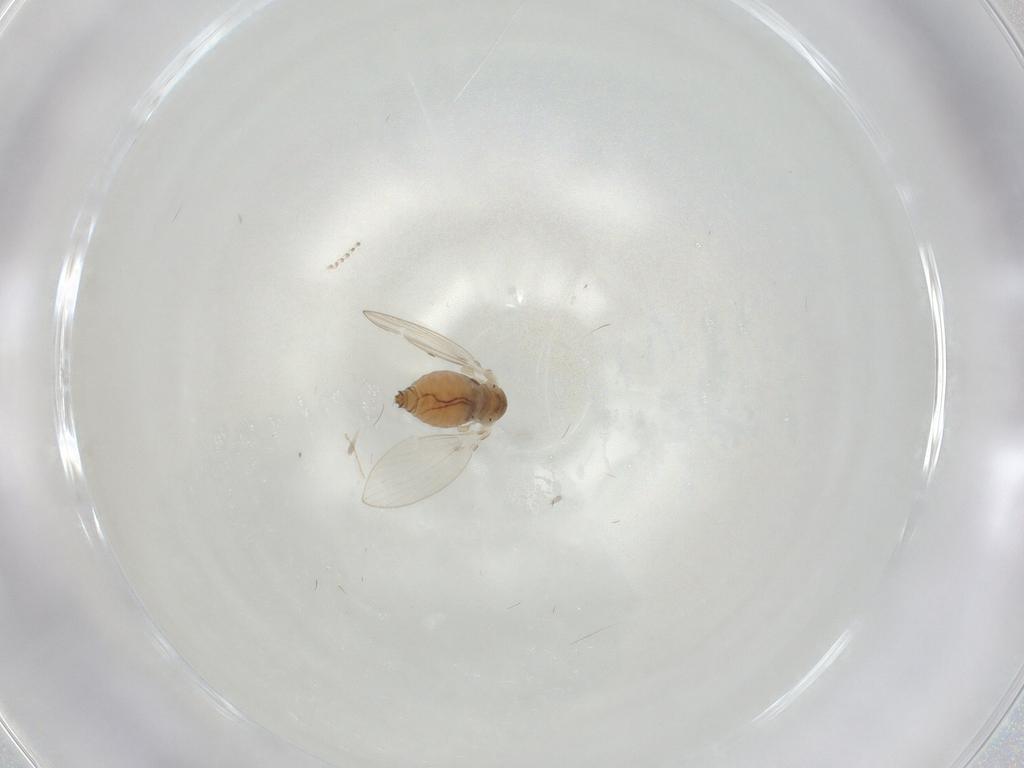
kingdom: Animalia
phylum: Arthropoda
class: Insecta
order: Diptera
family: Psychodidae
